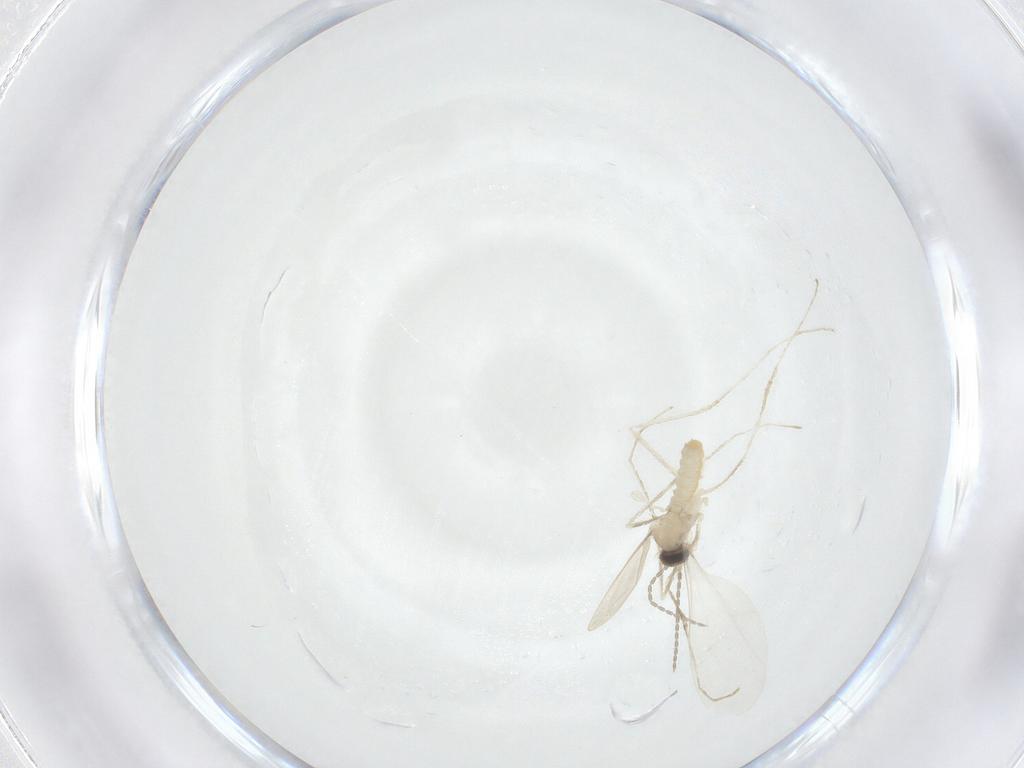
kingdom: Animalia
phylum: Arthropoda
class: Insecta
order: Diptera
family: Cecidomyiidae
